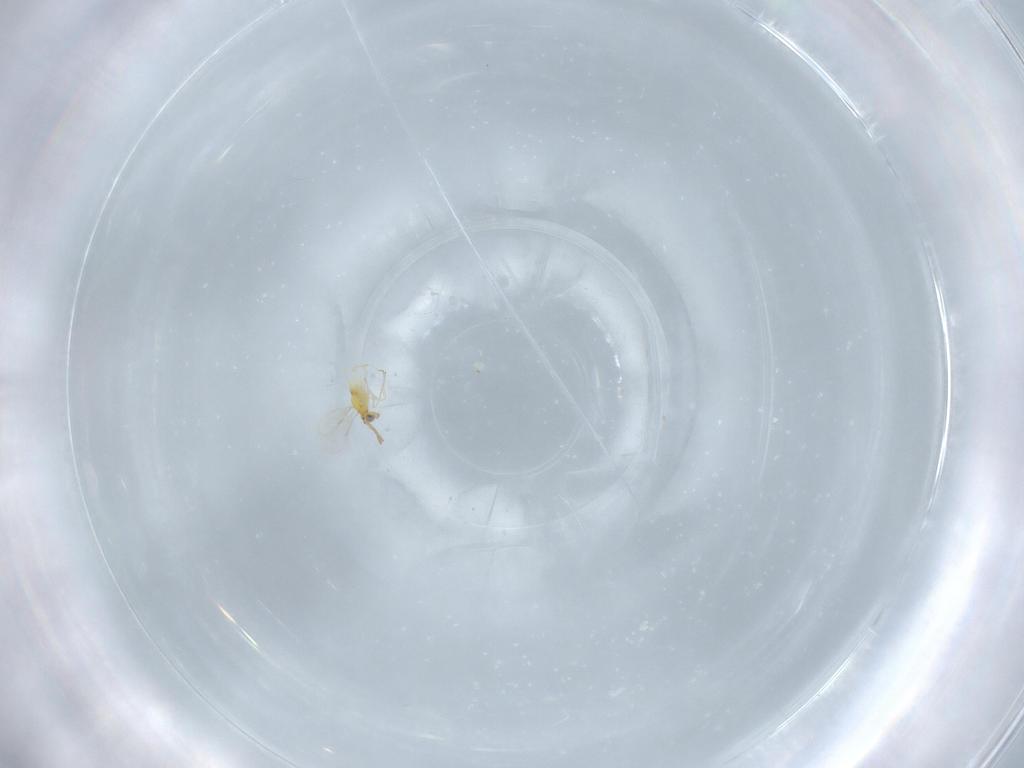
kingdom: Animalia
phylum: Arthropoda
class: Insecta
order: Hymenoptera
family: Aphelinidae
